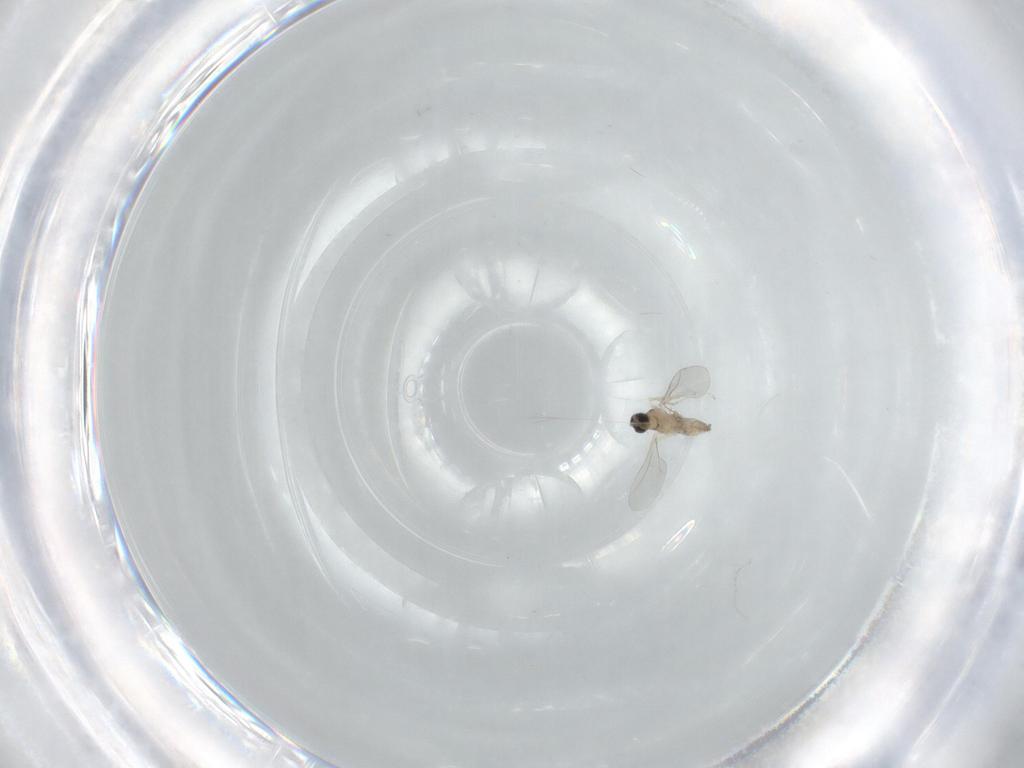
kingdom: Animalia
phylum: Arthropoda
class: Insecta
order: Diptera
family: Cecidomyiidae
